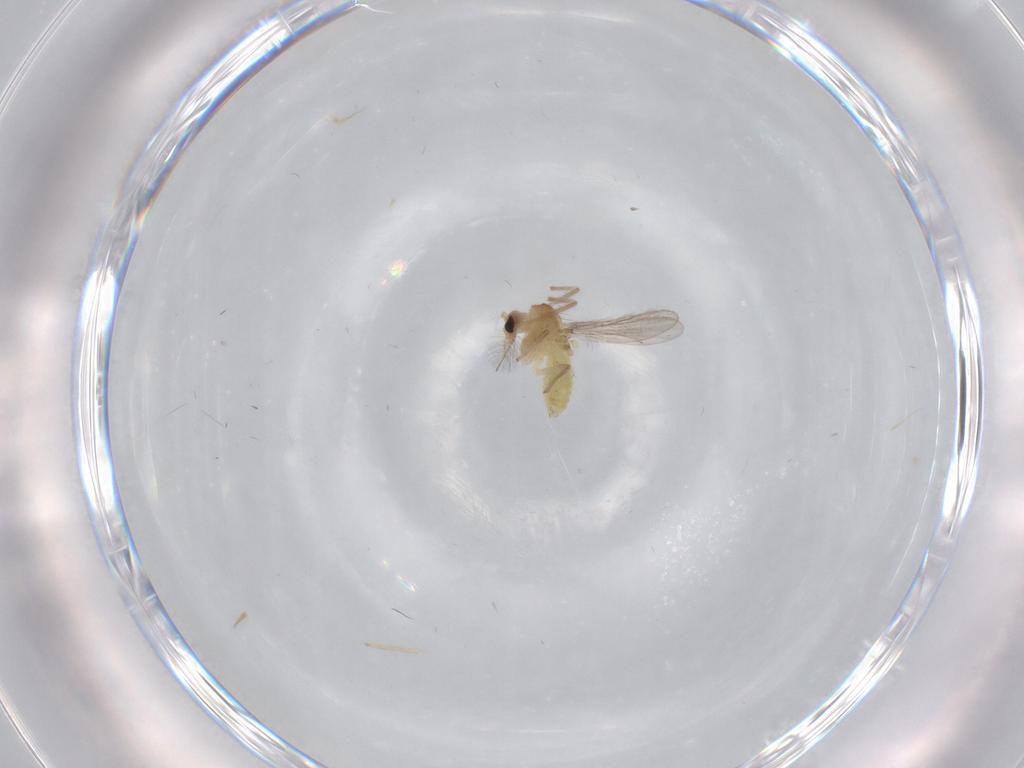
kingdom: Animalia
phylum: Arthropoda
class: Insecta
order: Diptera
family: Chironomidae
